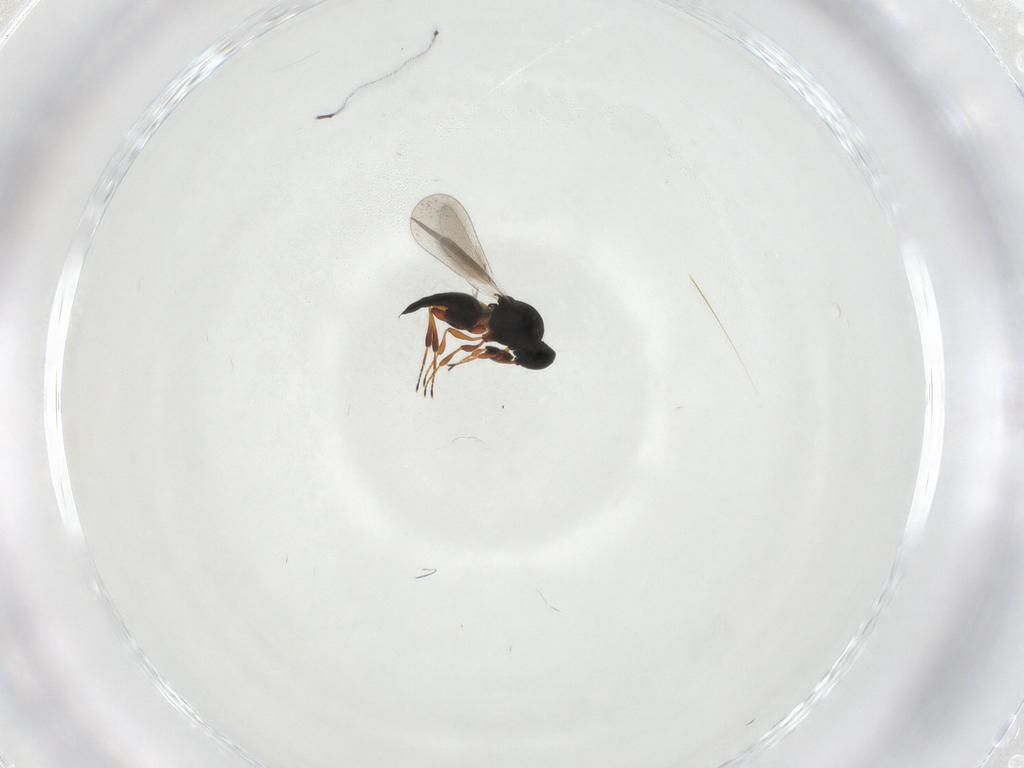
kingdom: Animalia
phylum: Arthropoda
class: Insecta
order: Hymenoptera
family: Platygastridae
